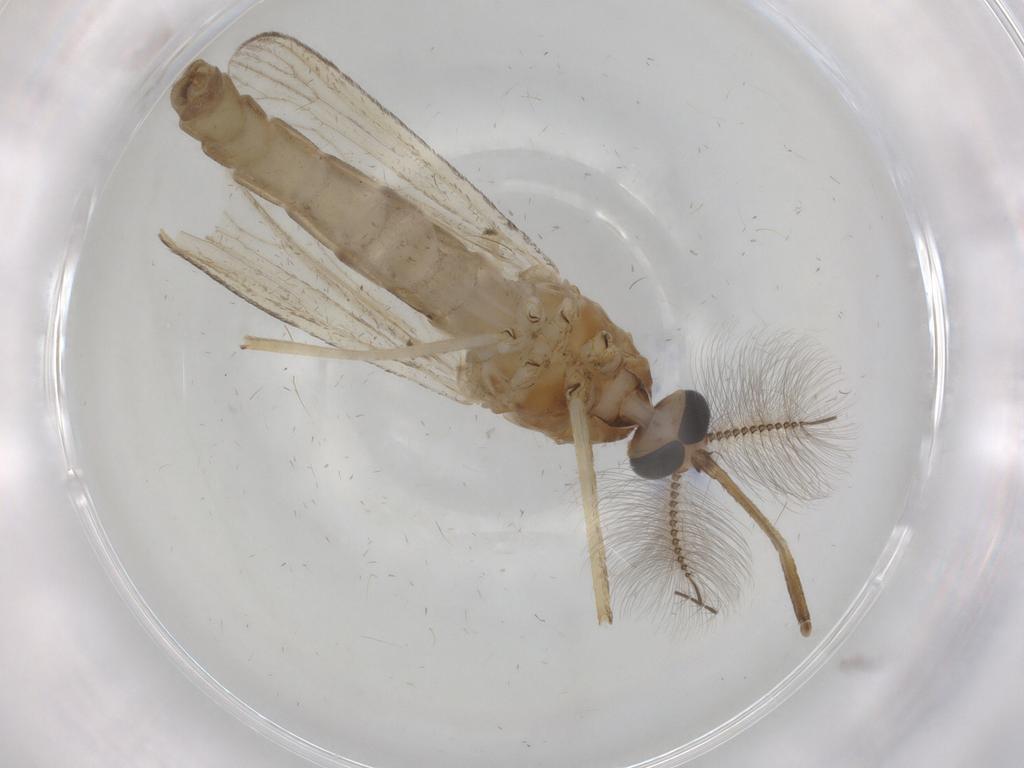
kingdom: Animalia
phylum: Arthropoda
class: Insecta
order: Diptera
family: Muscidae
